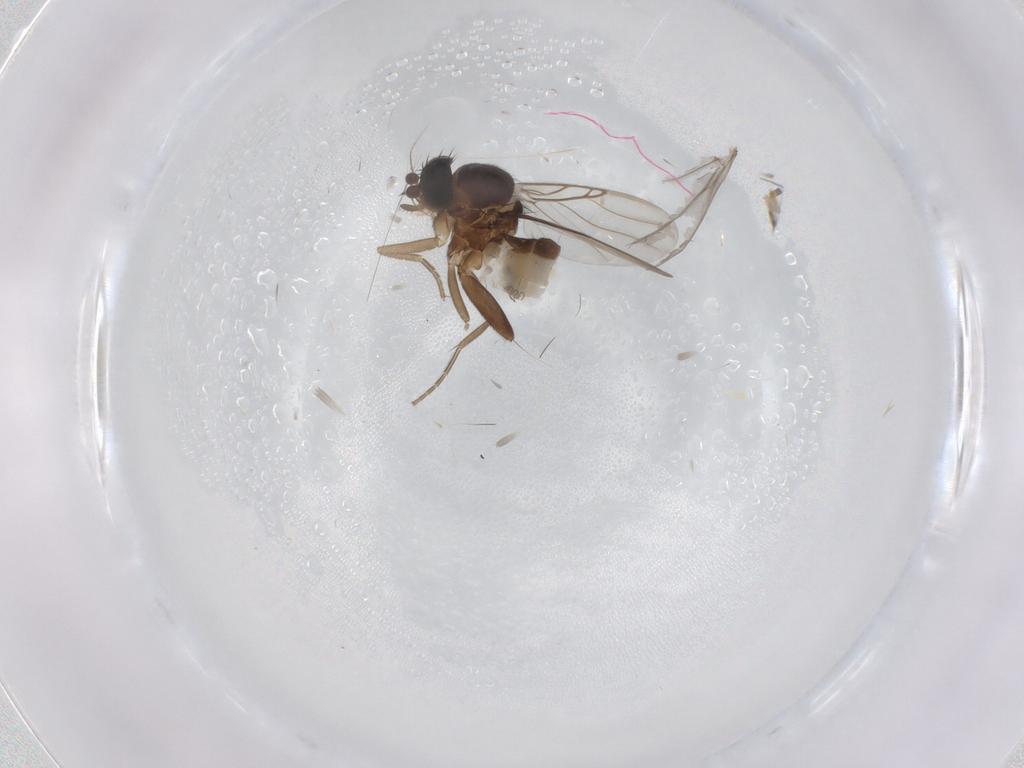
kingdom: Animalia
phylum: Arthropoda
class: Insecta
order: Diptera
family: Phoridae
